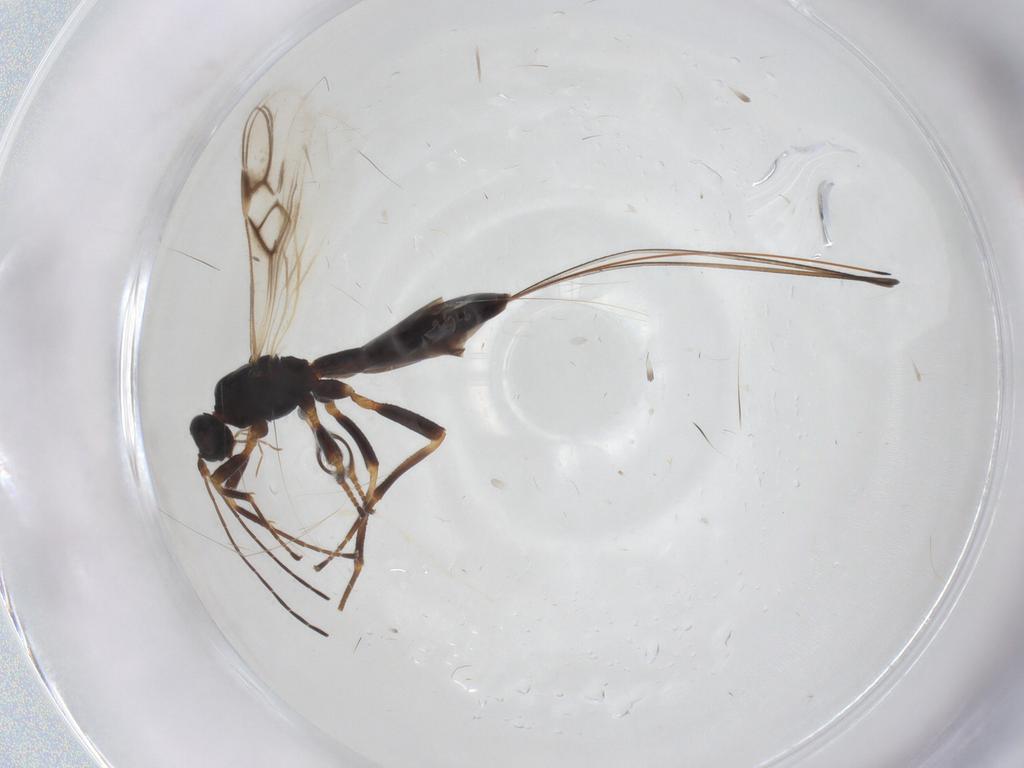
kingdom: Animalia
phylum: Arthropoda
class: Insecta
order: Hymenoptera
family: Braconidae
